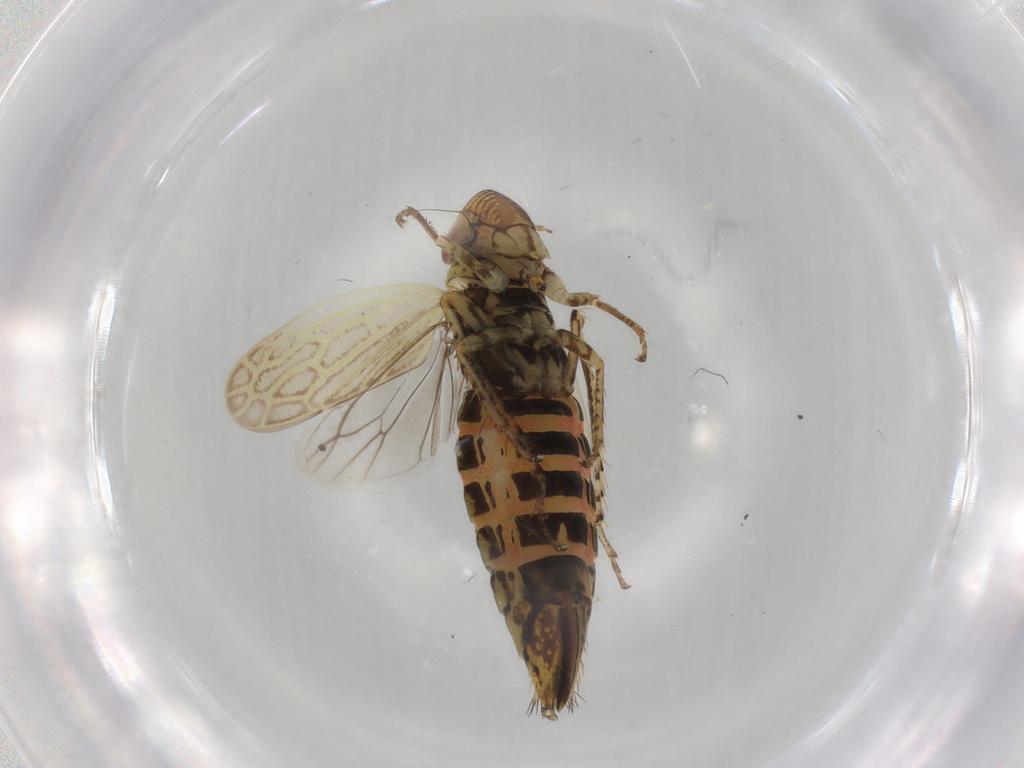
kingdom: Animalia
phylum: Arthropoda
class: Insecta
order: Hemiptera
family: Cicadellidae
